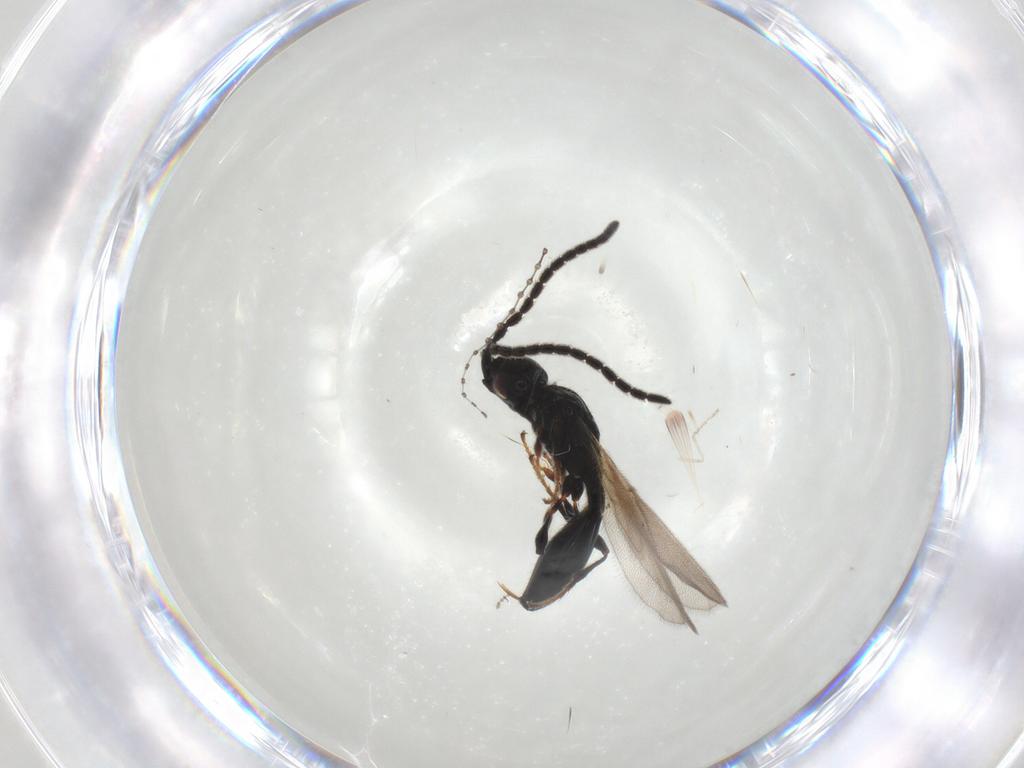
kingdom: Animalia
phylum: Arthropoda
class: Insecta
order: Hymenoptera
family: Diapriidae
